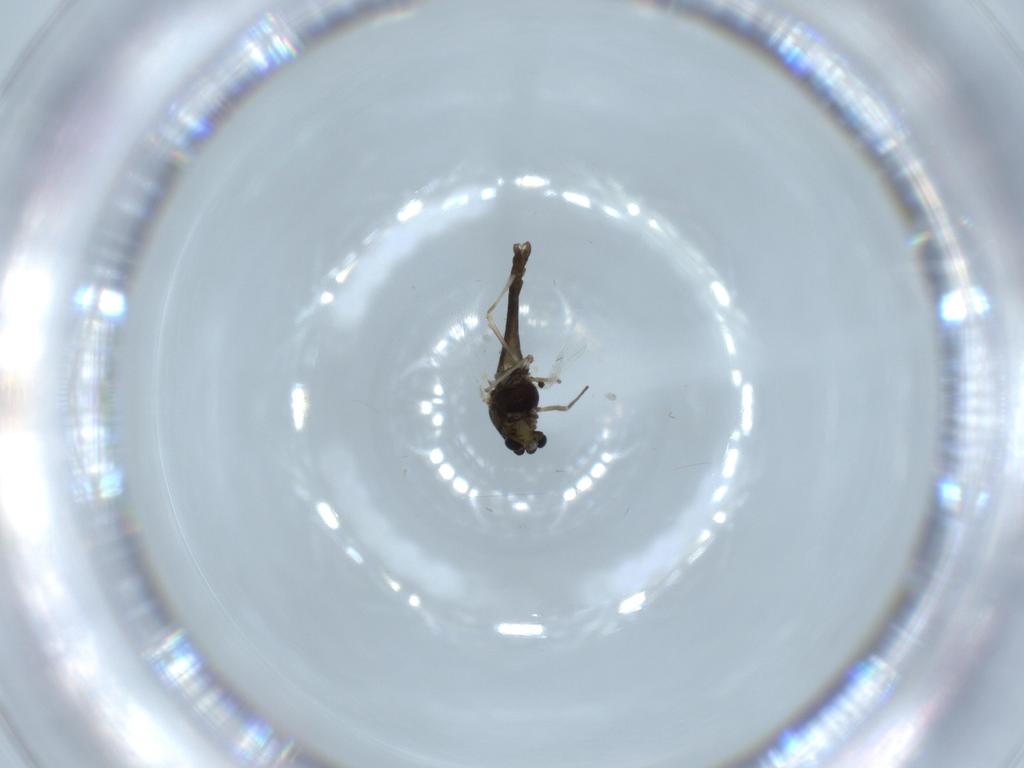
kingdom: Animalia
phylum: Arthropoda
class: Insecta
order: Diptera
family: Chironomidae
